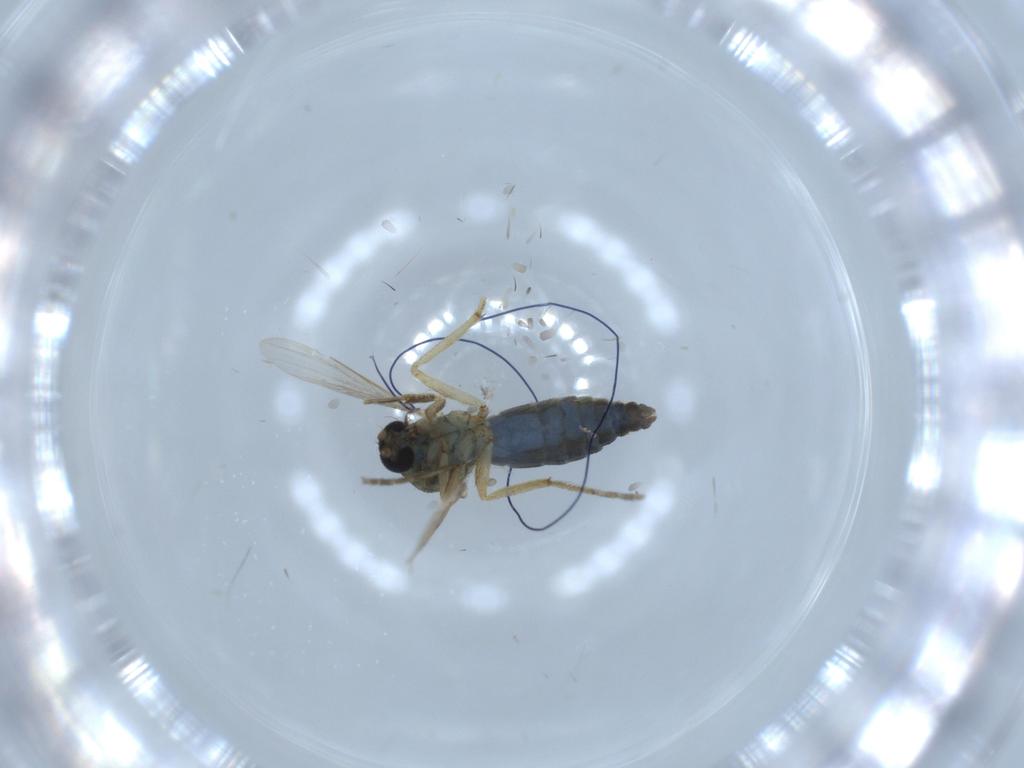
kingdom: Animalia
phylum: Arthropoda
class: Insecta
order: Diptera
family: Ceratopogonidae
